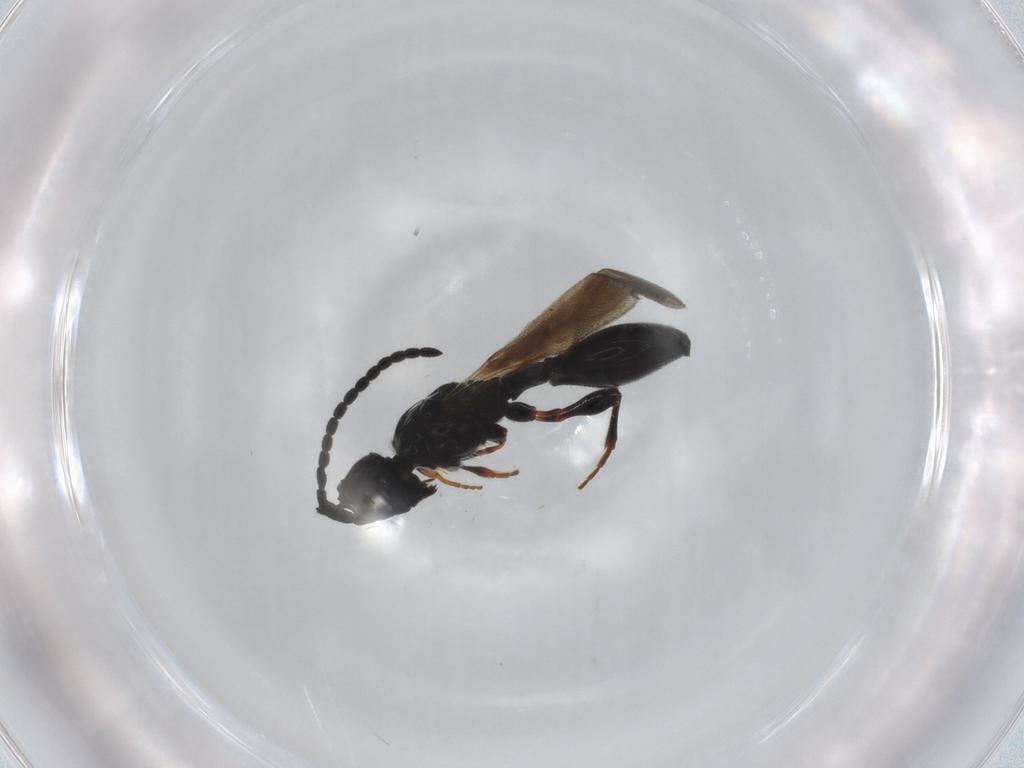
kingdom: Animalia
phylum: Arthropoda
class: Insecta
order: Hymenoptera
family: Diapriidae
